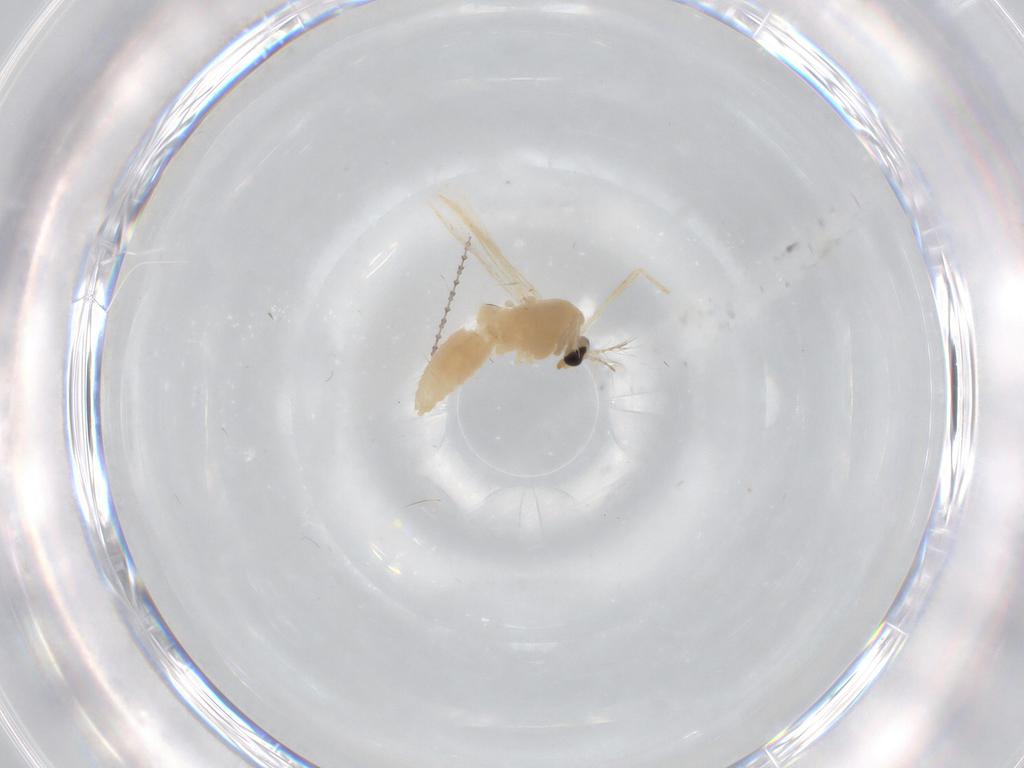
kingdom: Animalia
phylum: Arthropoda
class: Insecta
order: Diptera
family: Chironomidae
